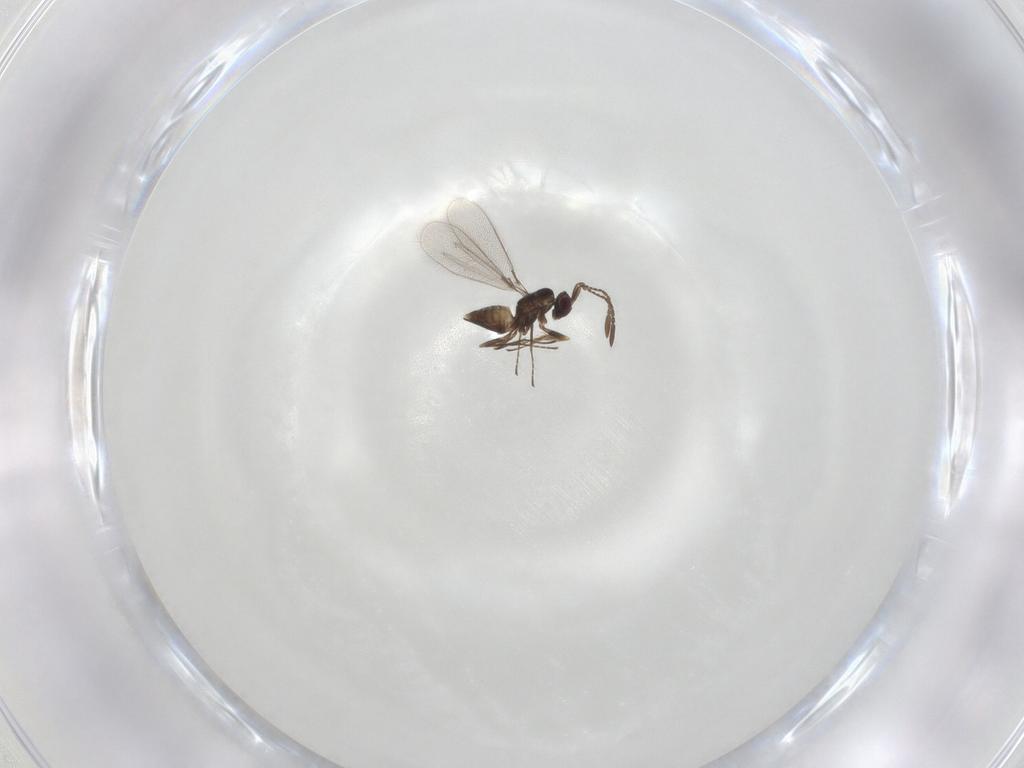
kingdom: Animalia
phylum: Arthropoda
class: Insecta
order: Hymenoptera
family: Mymaridae
